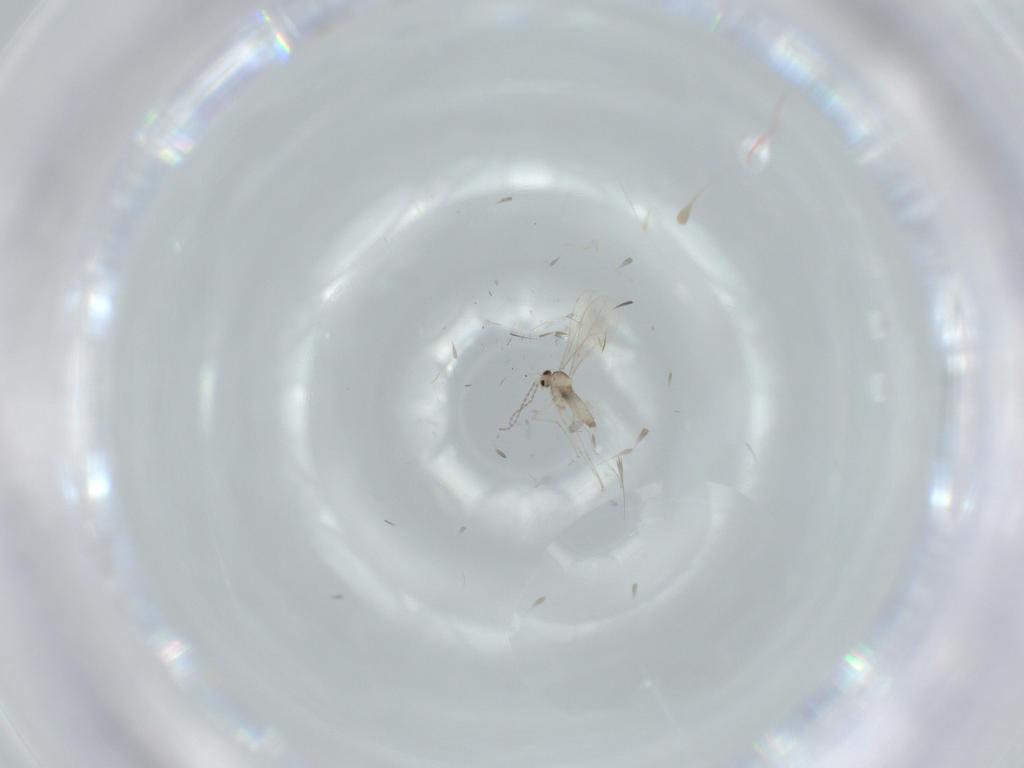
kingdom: Animalia
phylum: Arthropoda
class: Insecta
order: Diptera
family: Cecidomyiidae
